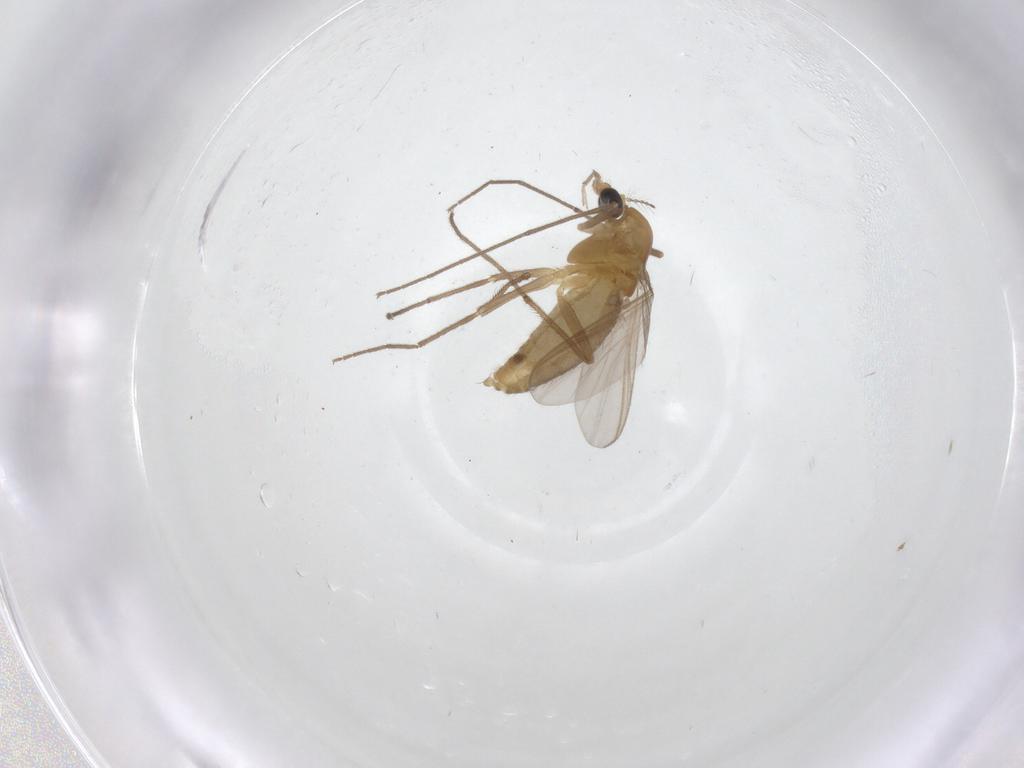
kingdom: Animalia
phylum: Arthropoda
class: Insecta
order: Diptera
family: Chironomidae
